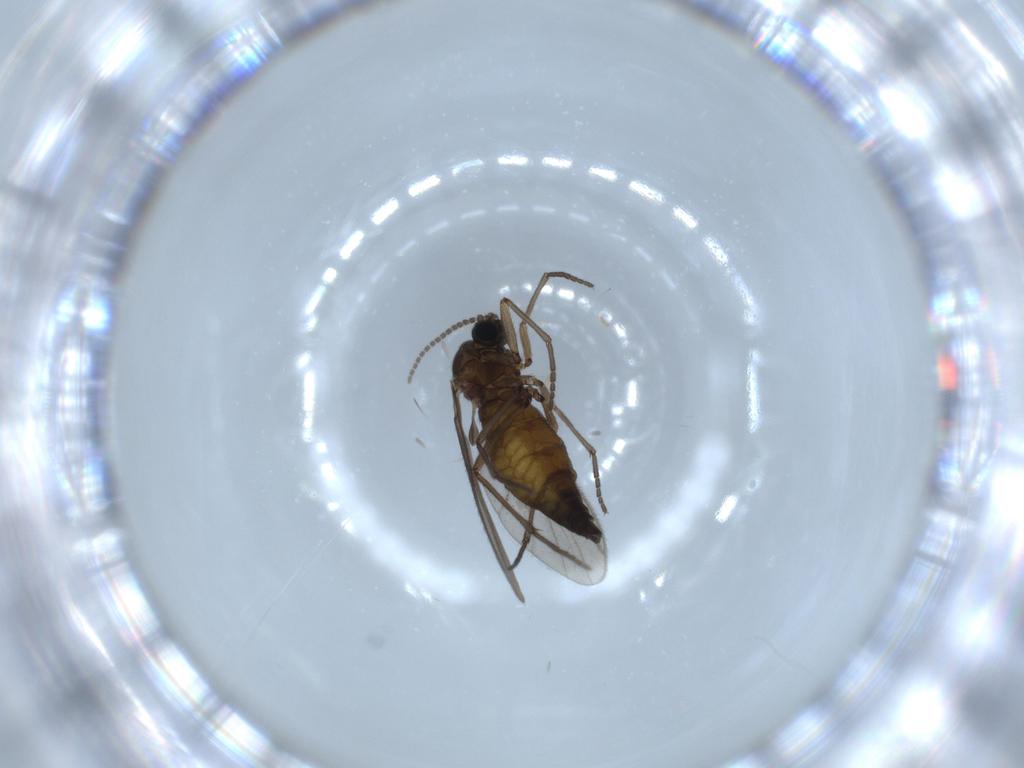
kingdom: Animalia
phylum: Arthropoda
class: Insecta
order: Diptera
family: Sciaridae
